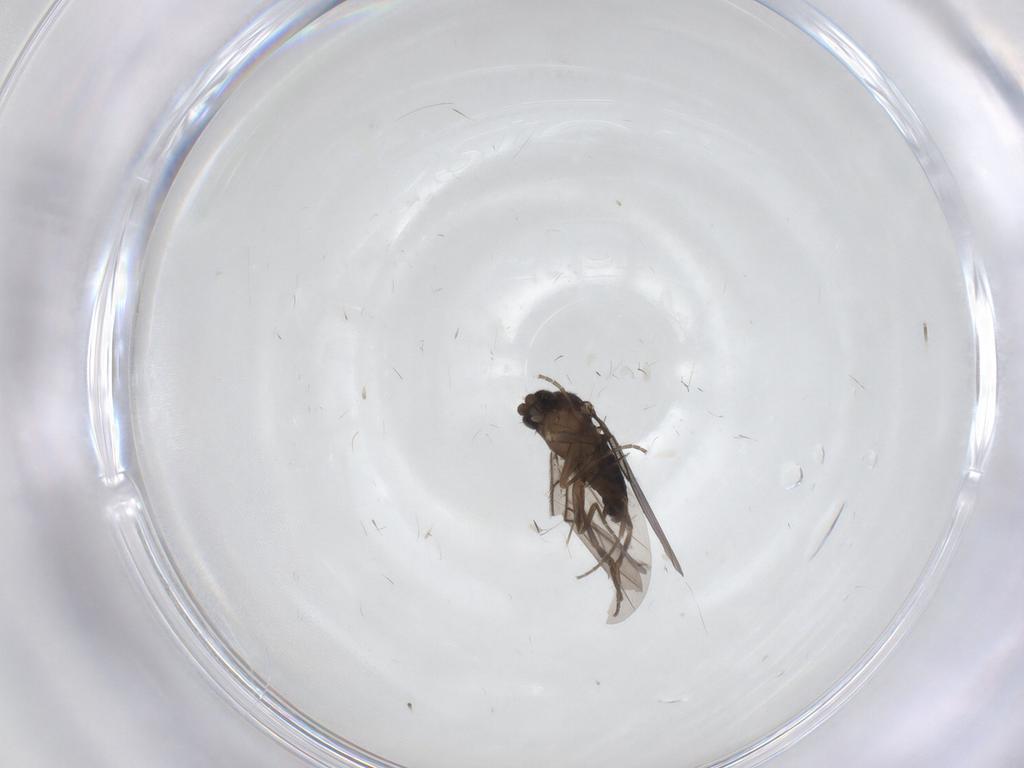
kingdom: Animalia
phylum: Arthropoda
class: Insecta
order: Diptera
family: Phoridae
